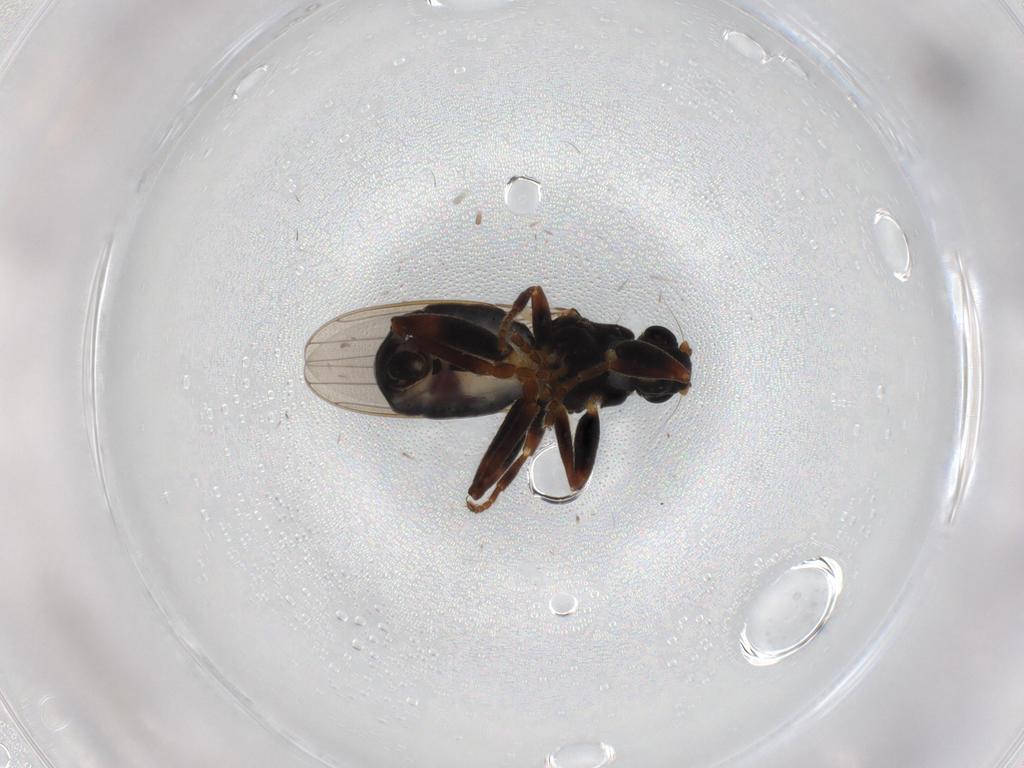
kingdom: Animalia
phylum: Arthropoda
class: Insecta
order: Diptera
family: Sphaeroceridae
